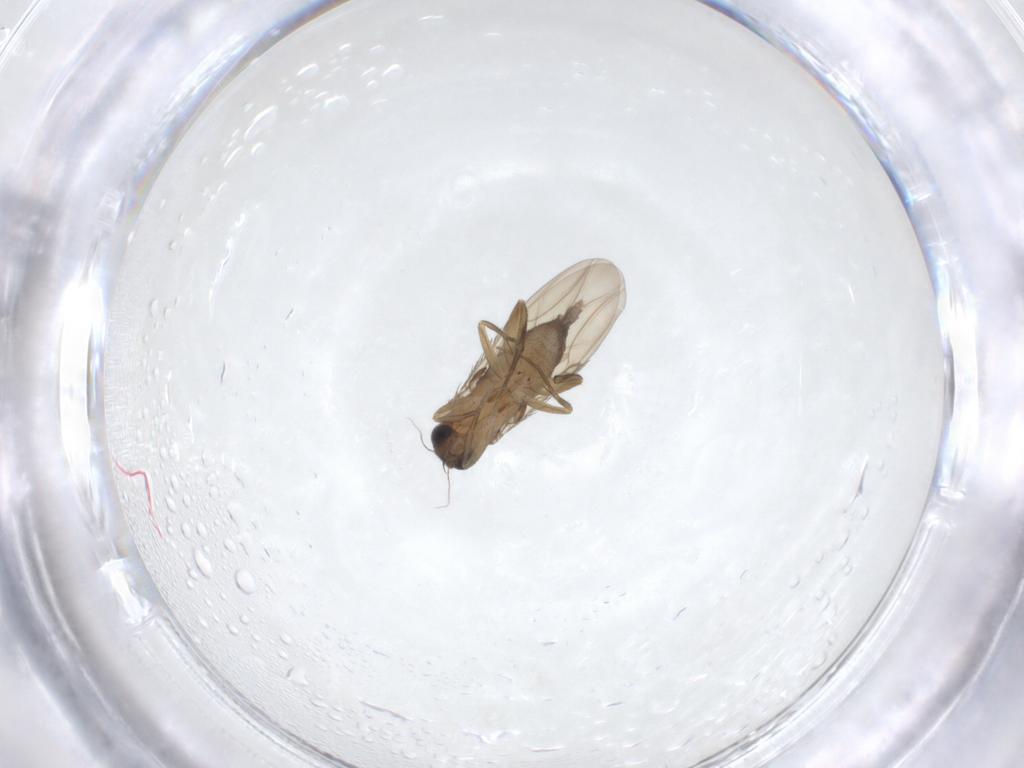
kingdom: Animalia
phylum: Arthropoda
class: Insecta
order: Diptera
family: Phoridae
